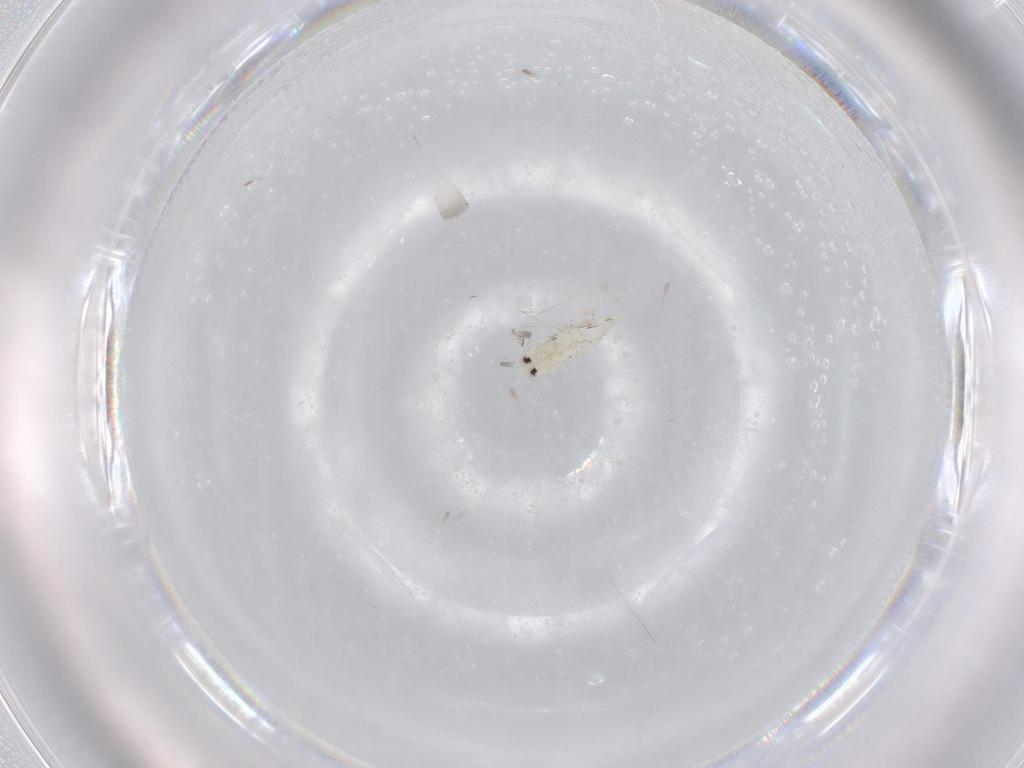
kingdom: Animalia
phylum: Arthropoda
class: Insecta
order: Hemiptera
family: Aleyrodidae
